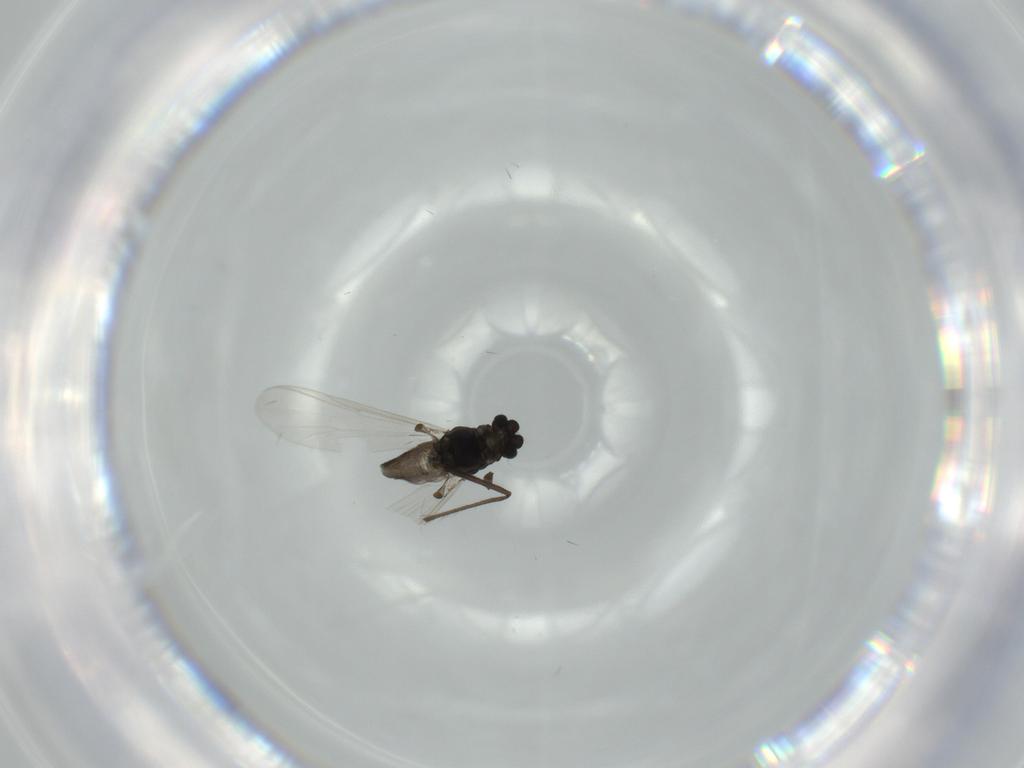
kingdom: Animalia
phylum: Arthropoda
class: Insecta
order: Diptera
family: Chironomidae
